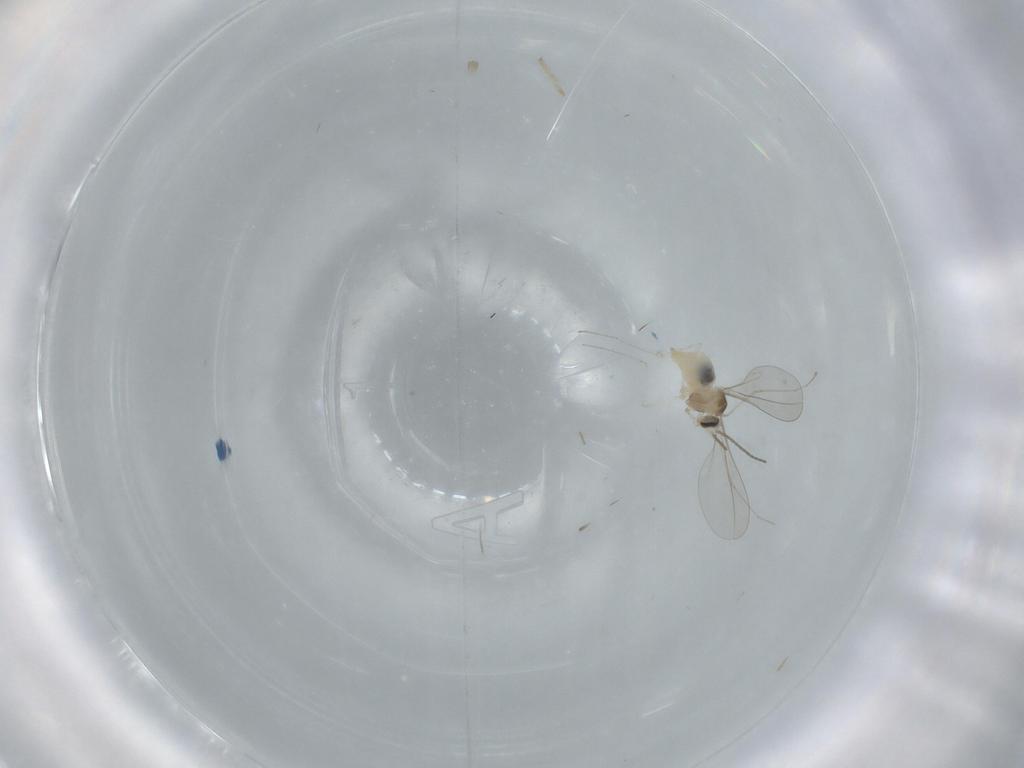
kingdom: Animalia
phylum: Arthropoda
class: Insecta
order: Diptera
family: Cecidomyiidae
